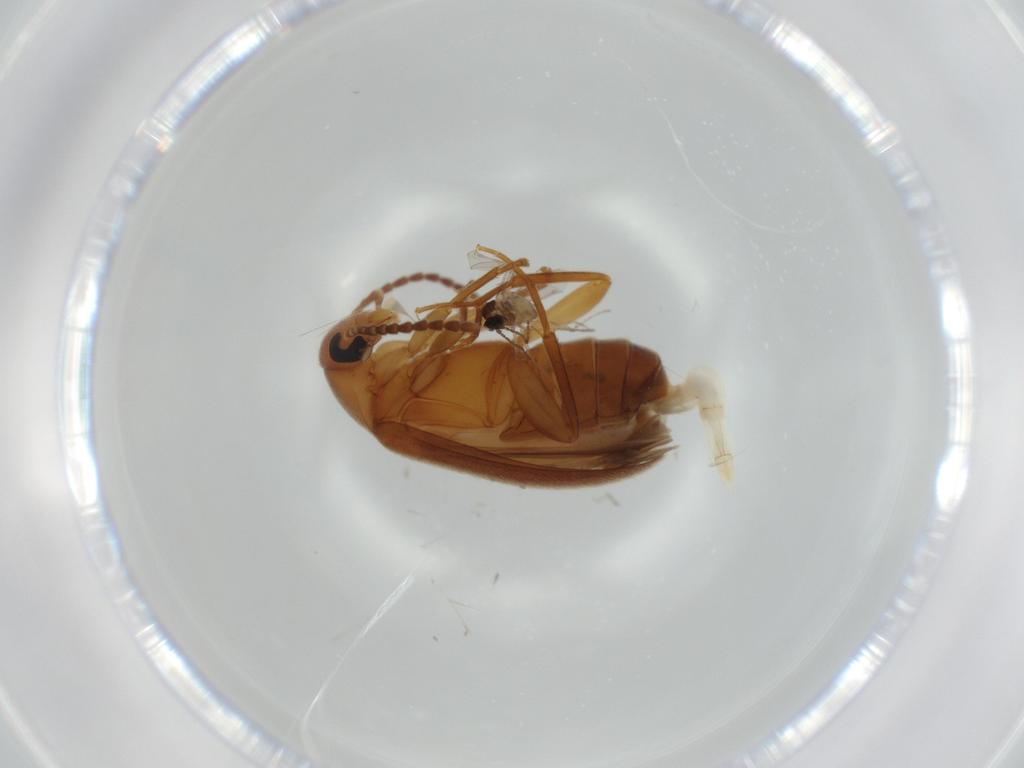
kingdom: Animalia
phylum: Arthropoda
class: Insecta
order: Coleoptera
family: Scraptiidae
